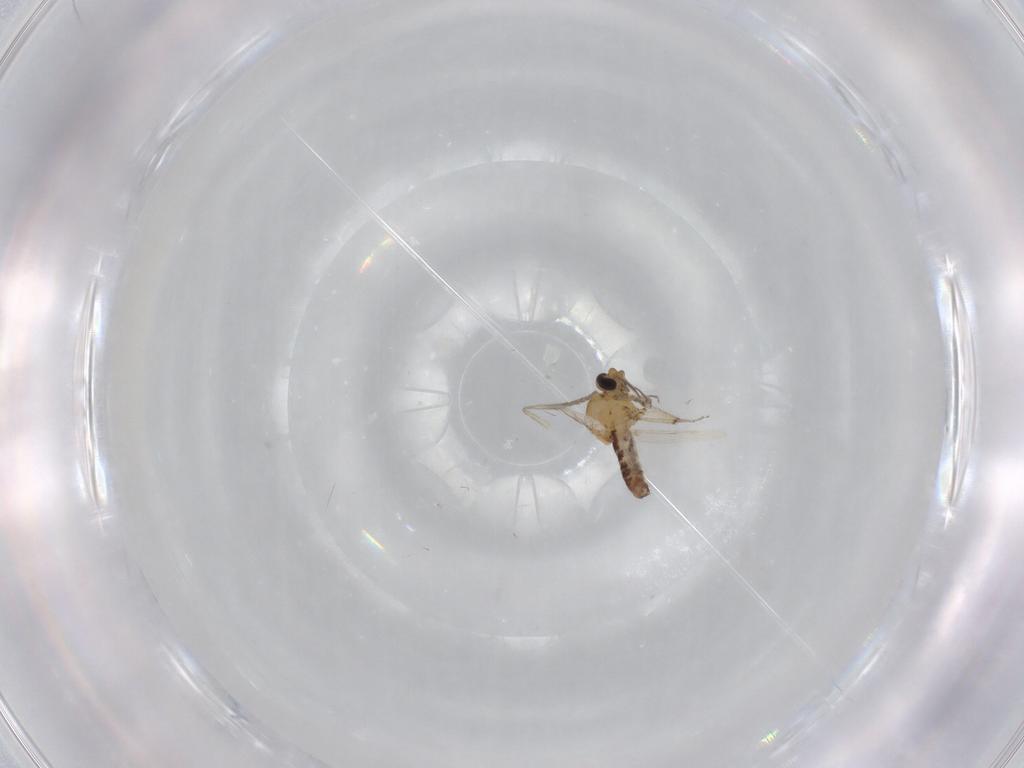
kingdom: Animalia
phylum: Arthropoda
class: Insecta
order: Diptera
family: Ceratopogonidae
